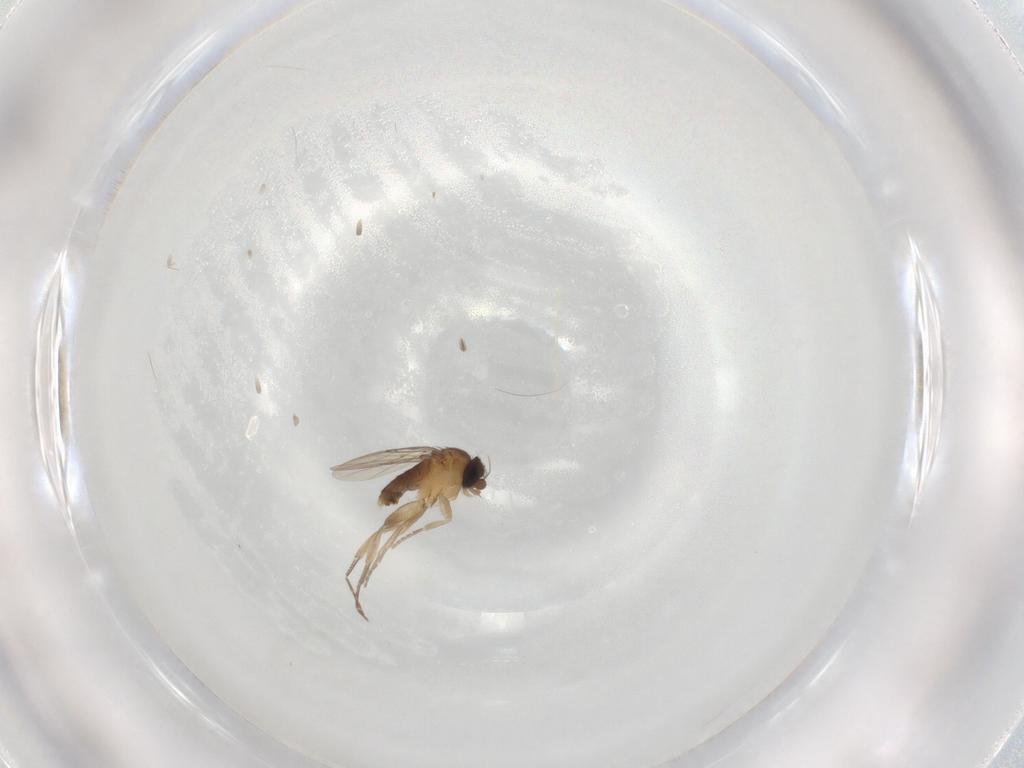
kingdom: Animalia
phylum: Arthropoda
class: Insecta
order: Diptera
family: Phoridae
